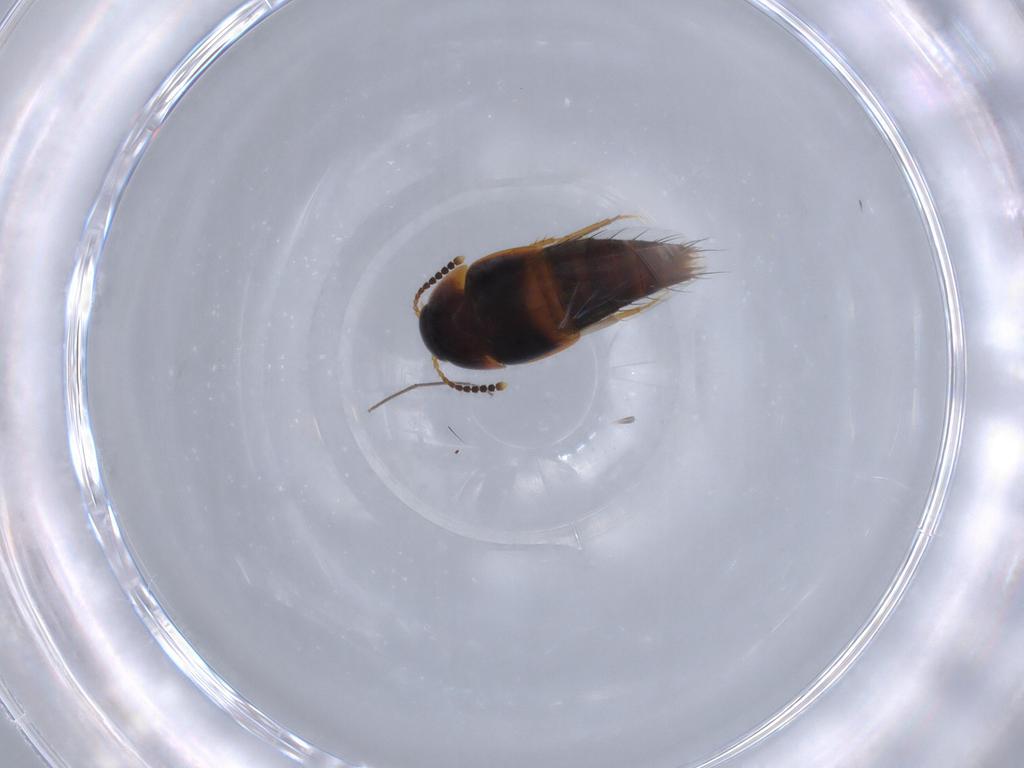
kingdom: Animalia
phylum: Arthropoda
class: Insecta
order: Coleoptera
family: Staphylinidae
